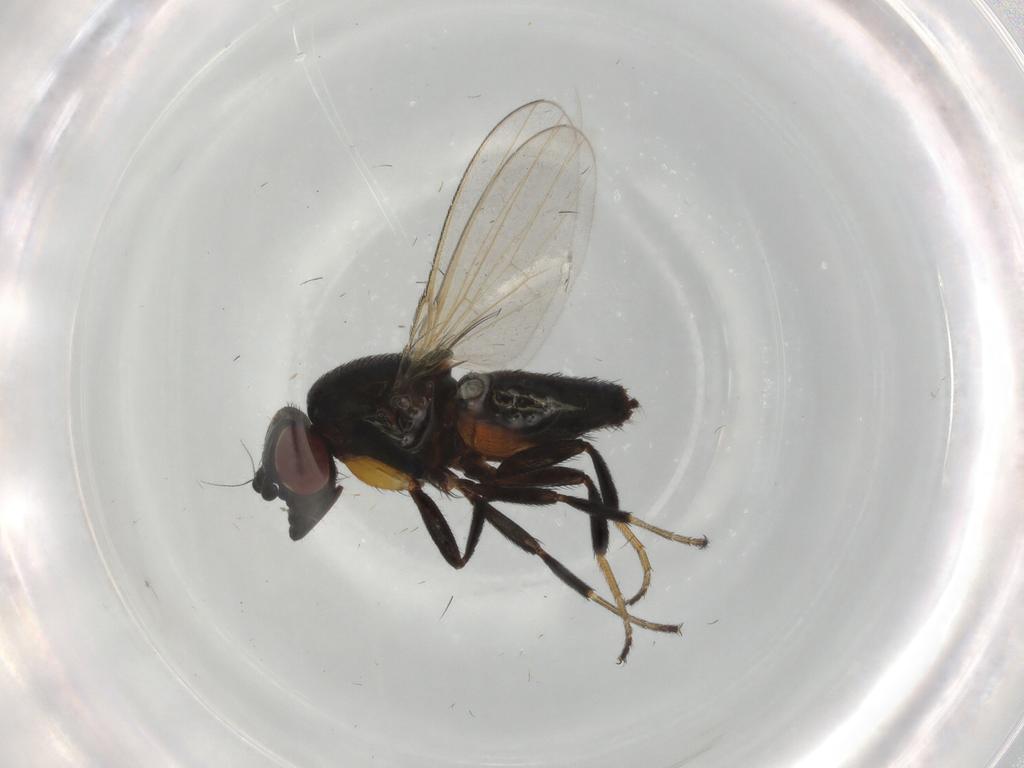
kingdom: Animalia
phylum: Arthropoda
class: Insecta
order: Diptera
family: Milichiidae
